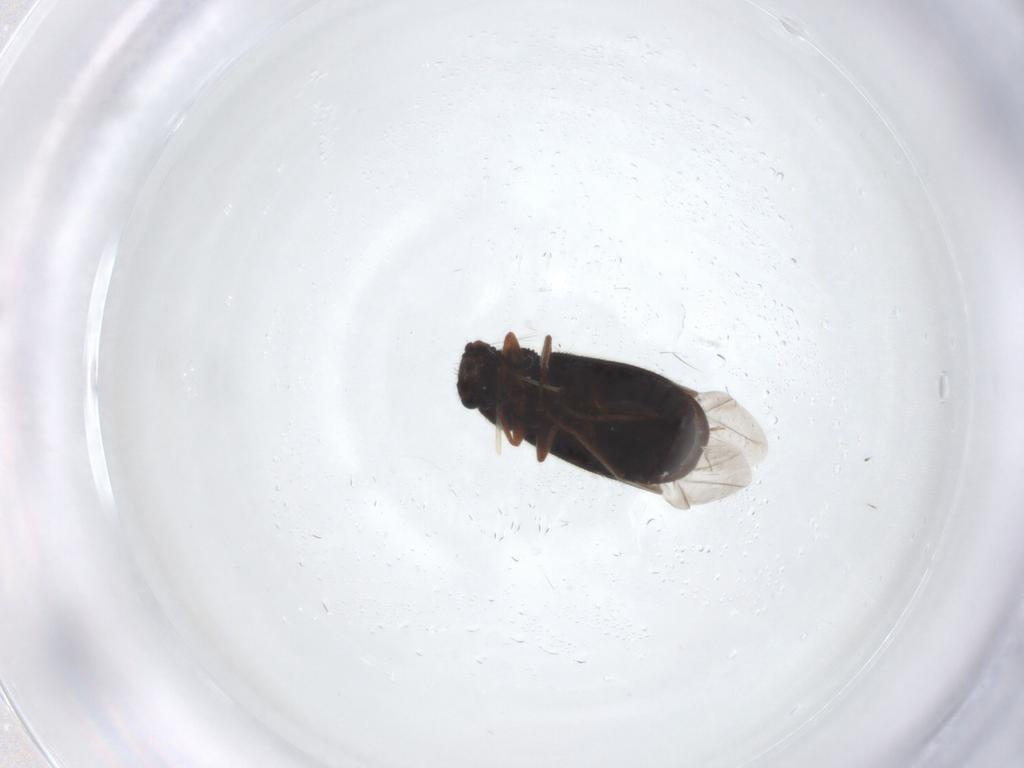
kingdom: Animalia
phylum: Arthropoda
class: Insecta
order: Coleoptera
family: Melyridae
